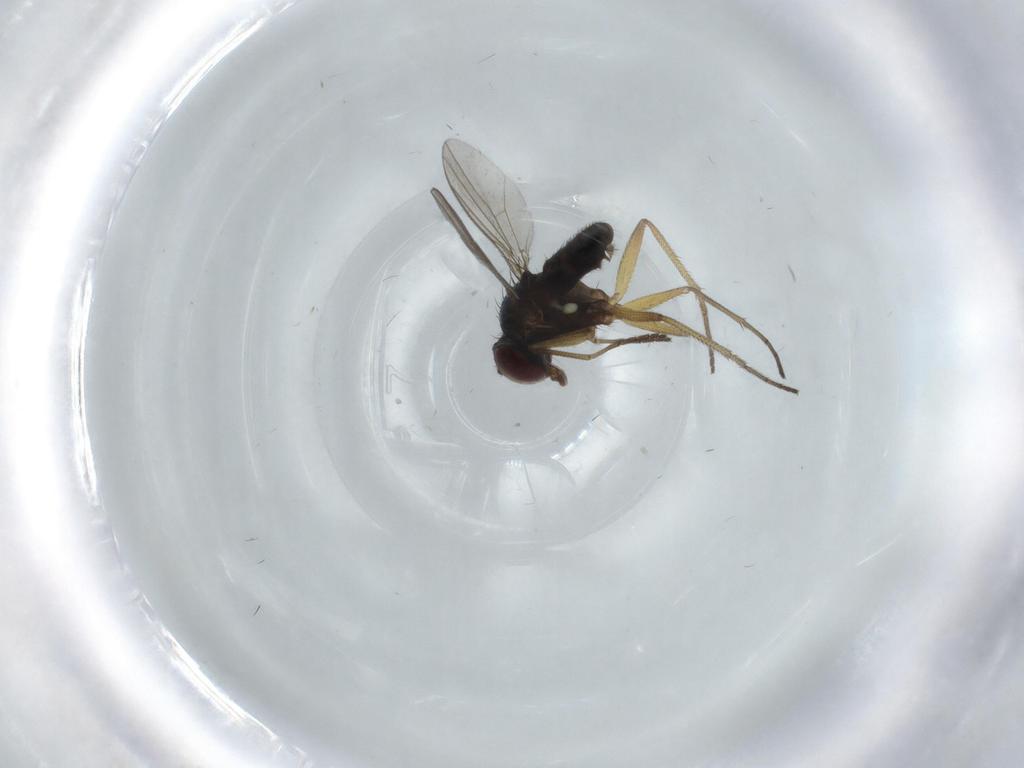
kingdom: Animalia
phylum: Arthropoda
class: Insecta
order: Diptera
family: Dolichopodidae
